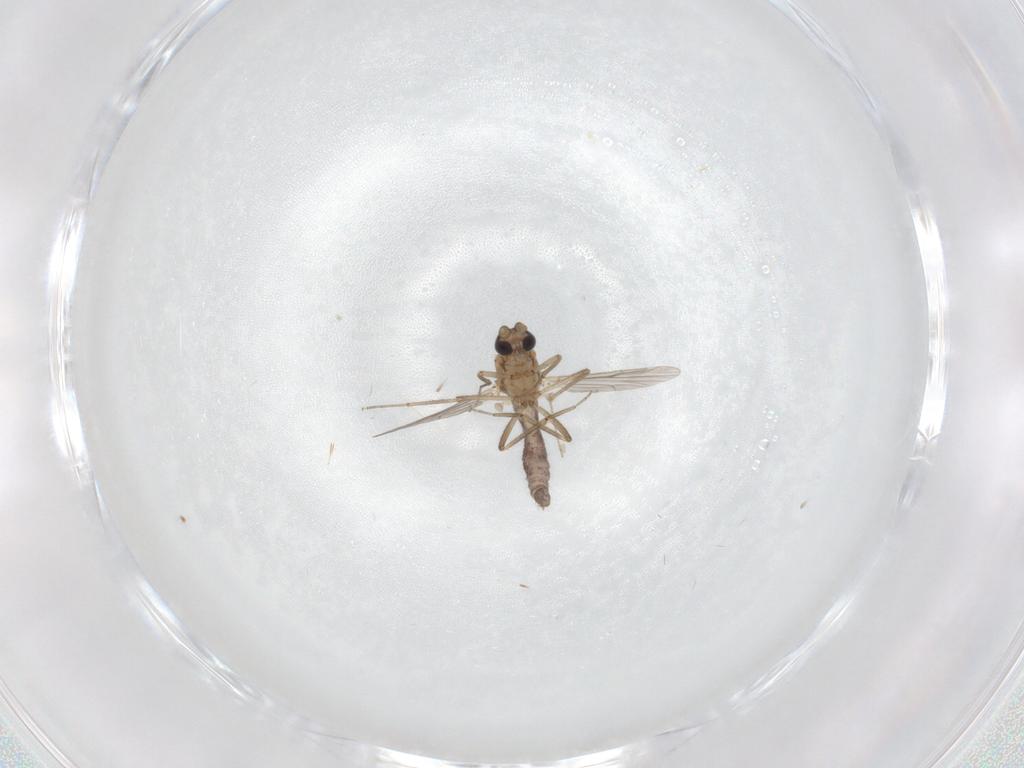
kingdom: Animalia
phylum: Arthropoda
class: Insecta
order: Diptera
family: Ceratopogonidae
